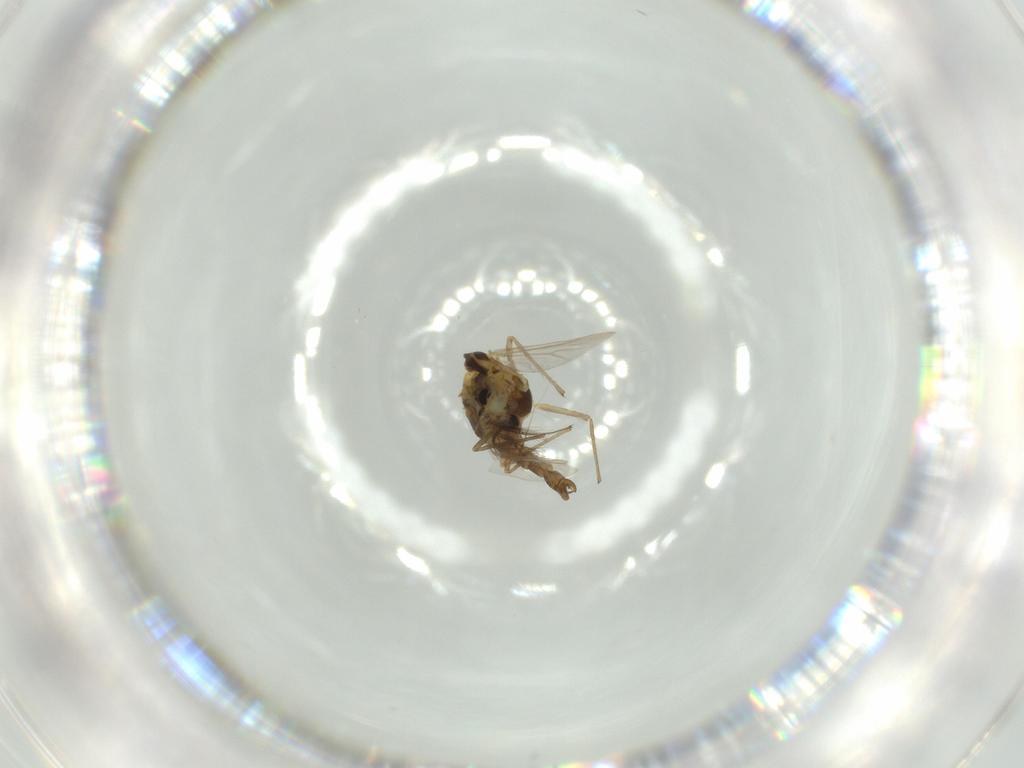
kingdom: Animalia
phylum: Arthropoda
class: Insecta
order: Diptera
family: Chironomidae
